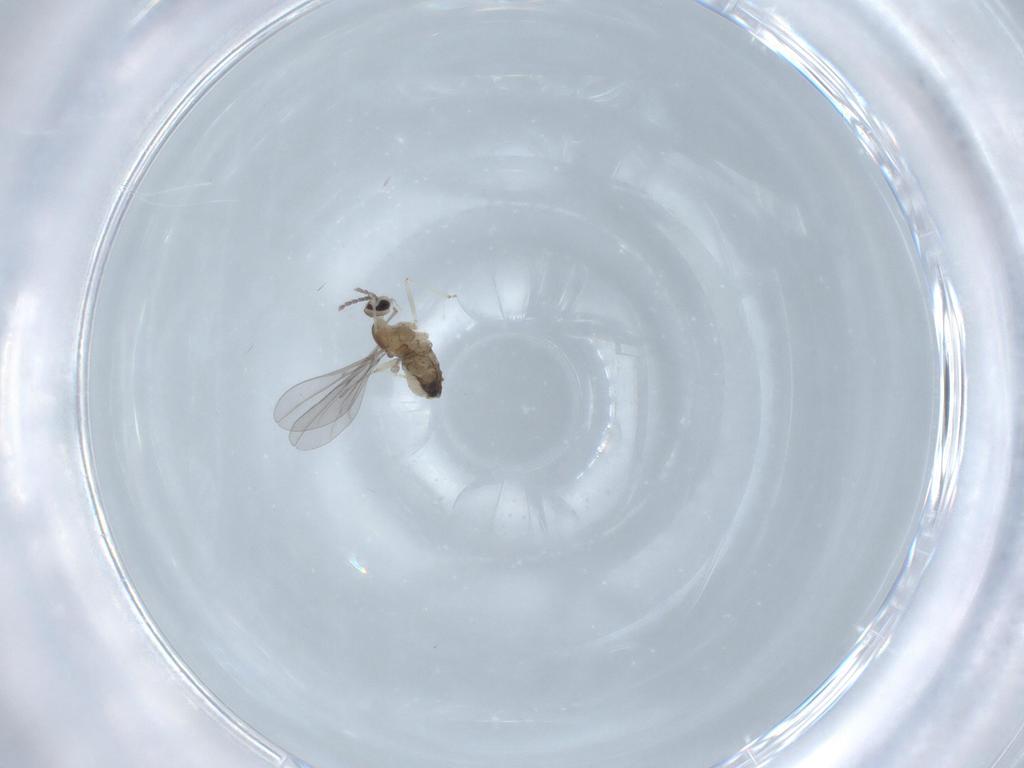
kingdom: Animalia
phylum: Arthropoda
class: Insecta
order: Diptera
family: Cecidomyiidae
